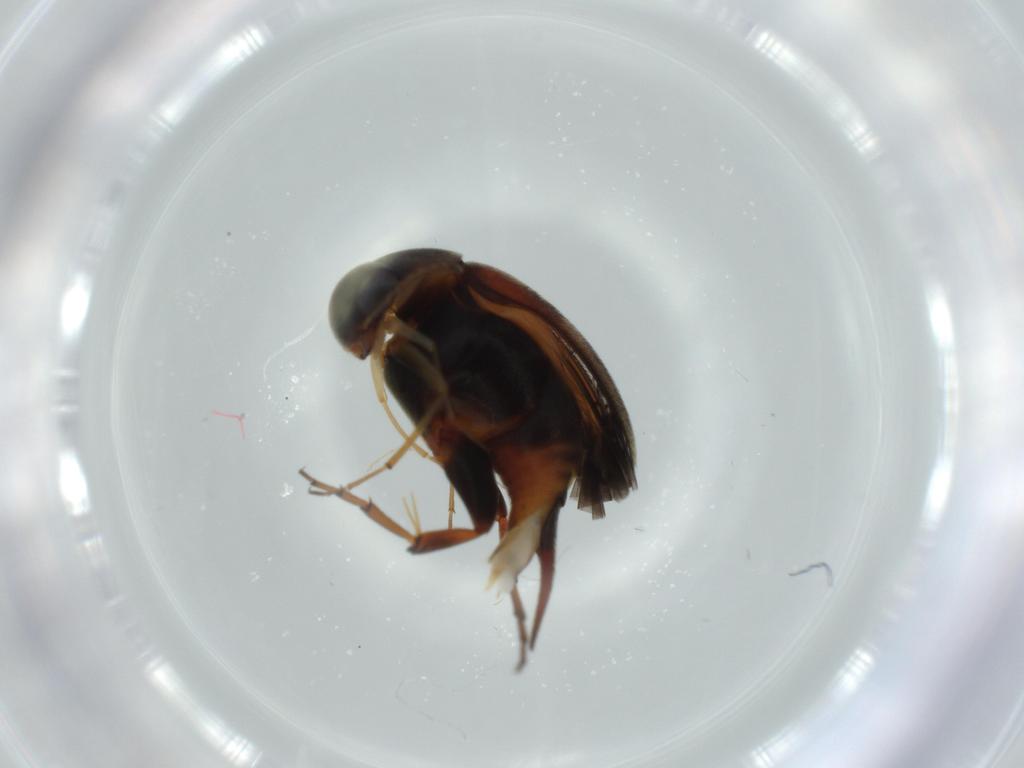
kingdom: Animalia
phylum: Arthropoda
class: Insecta
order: Coleoptera
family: Mordellidae
